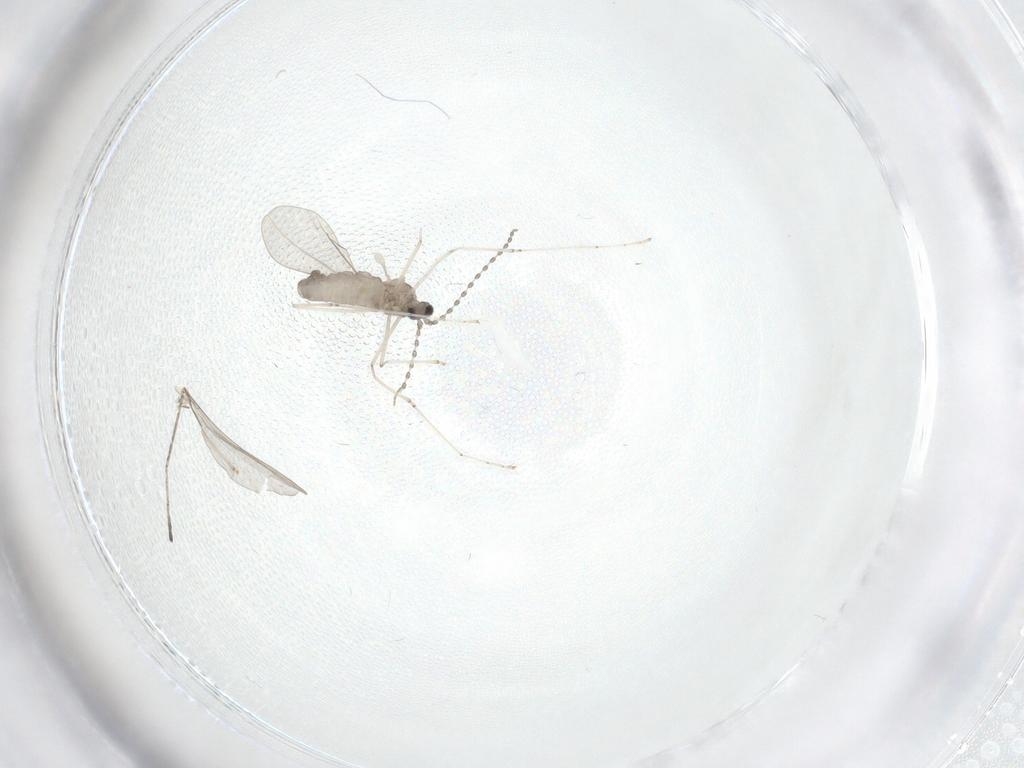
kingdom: Animalia
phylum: Arthropoda
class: Insecta
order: Diptera
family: Cecidomyiidae
